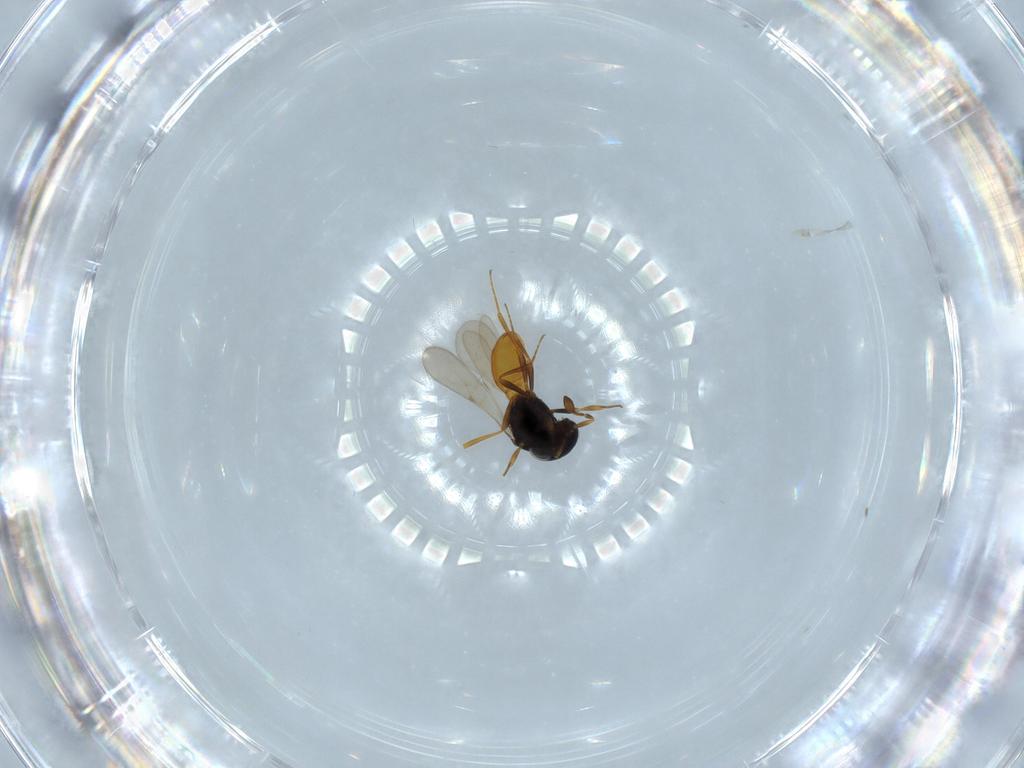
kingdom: Animalia
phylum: Arthropoda
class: Insecta
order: Hymenoptera
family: Scelionidae
